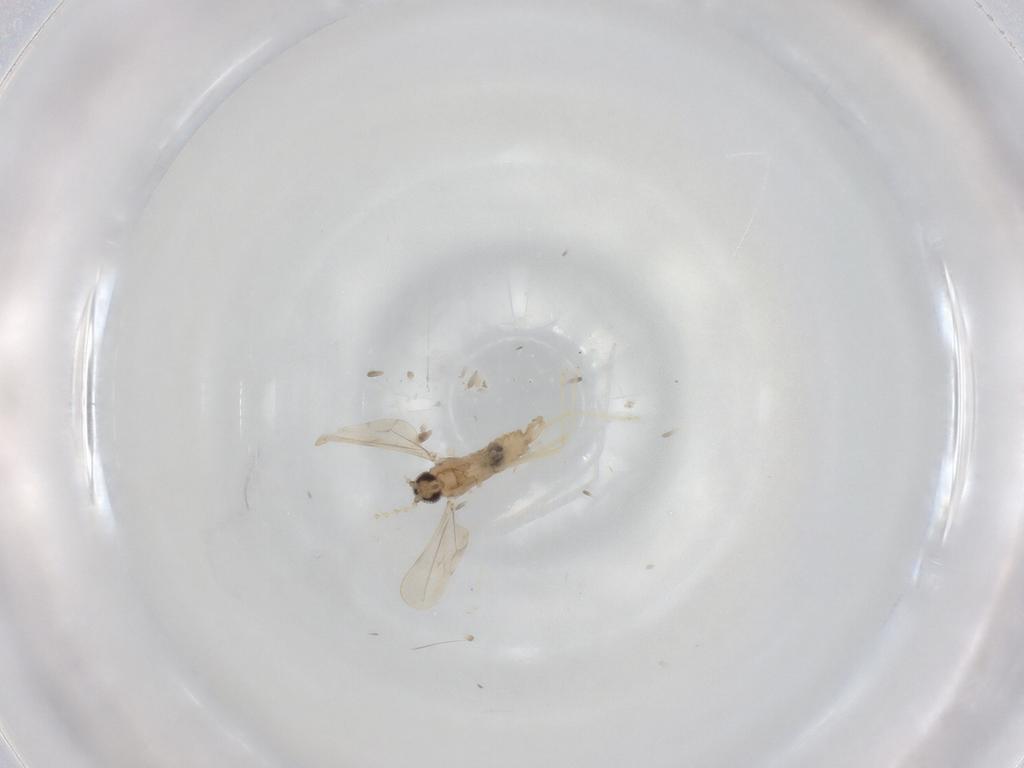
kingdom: Animalia
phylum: Arthropoda
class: Insecta
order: Diptera
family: Cecidomyiidae
